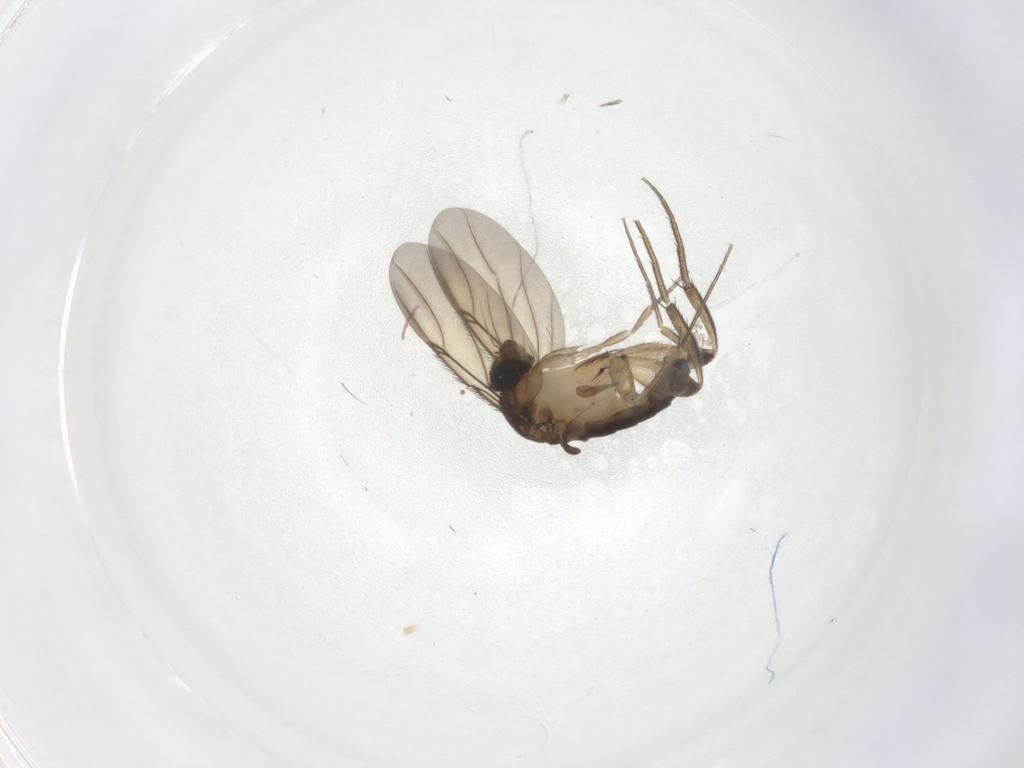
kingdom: Animalia
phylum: Arthropoda
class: Insecta
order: Diptera
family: Limoniidae
